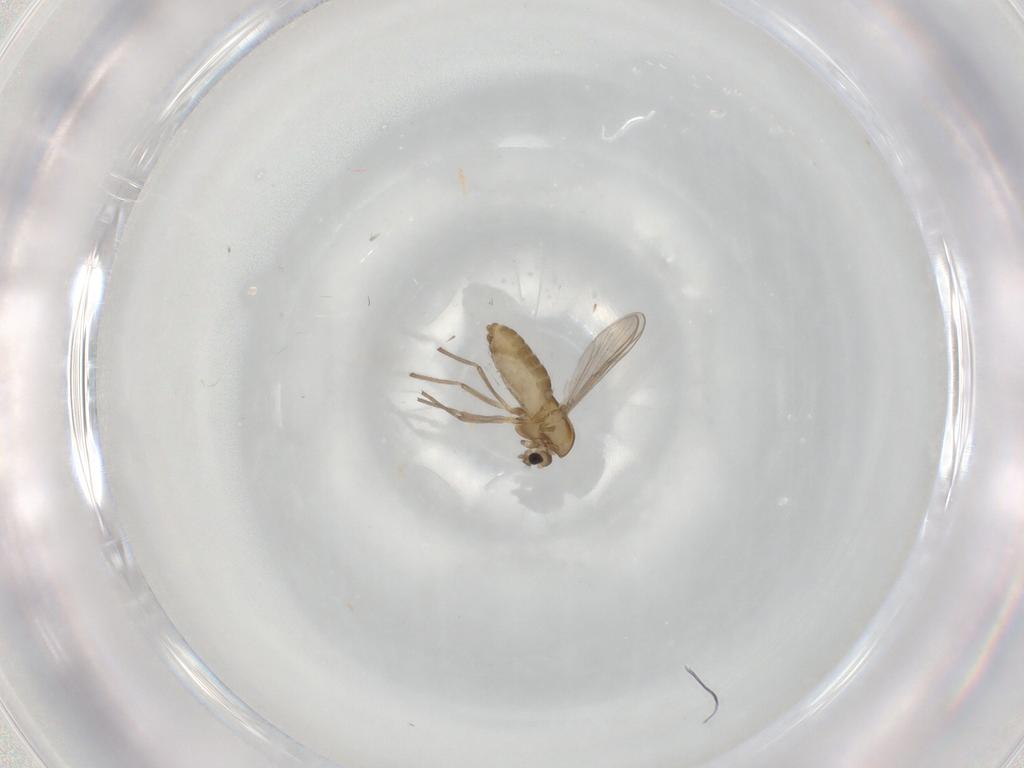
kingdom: Animalia
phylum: Arthropoda
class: Insecta
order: Diptera
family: Chironomidae
